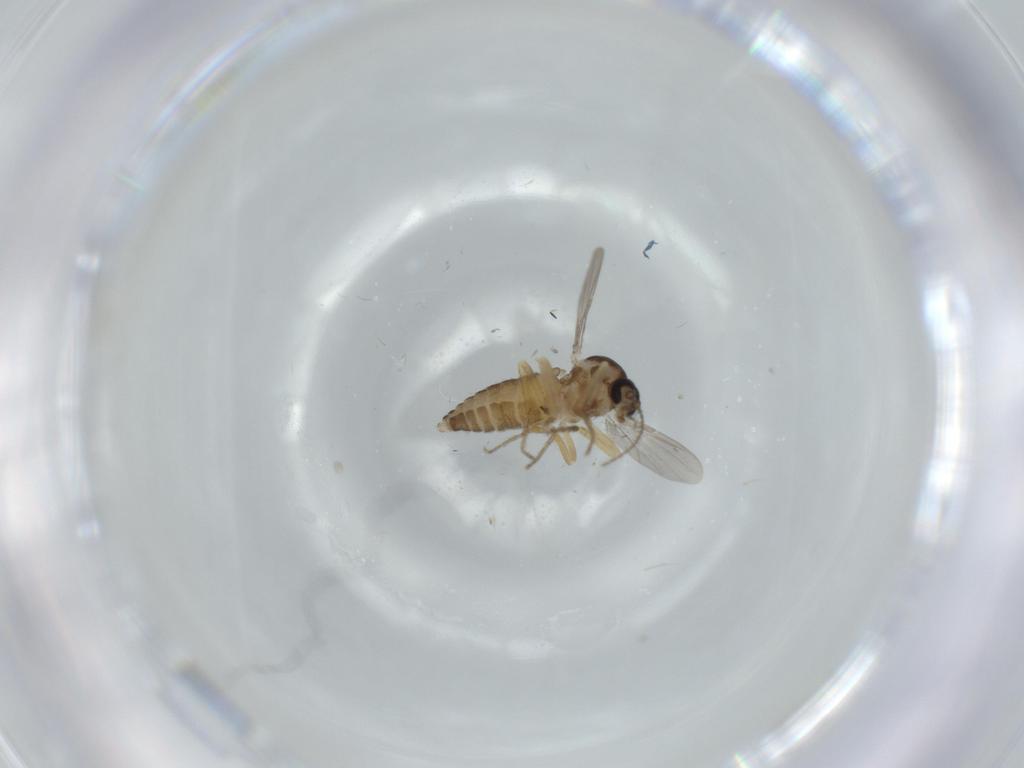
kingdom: Animalia
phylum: Arthropoda
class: Insecta
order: Diptera
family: Ceratopogonidae
